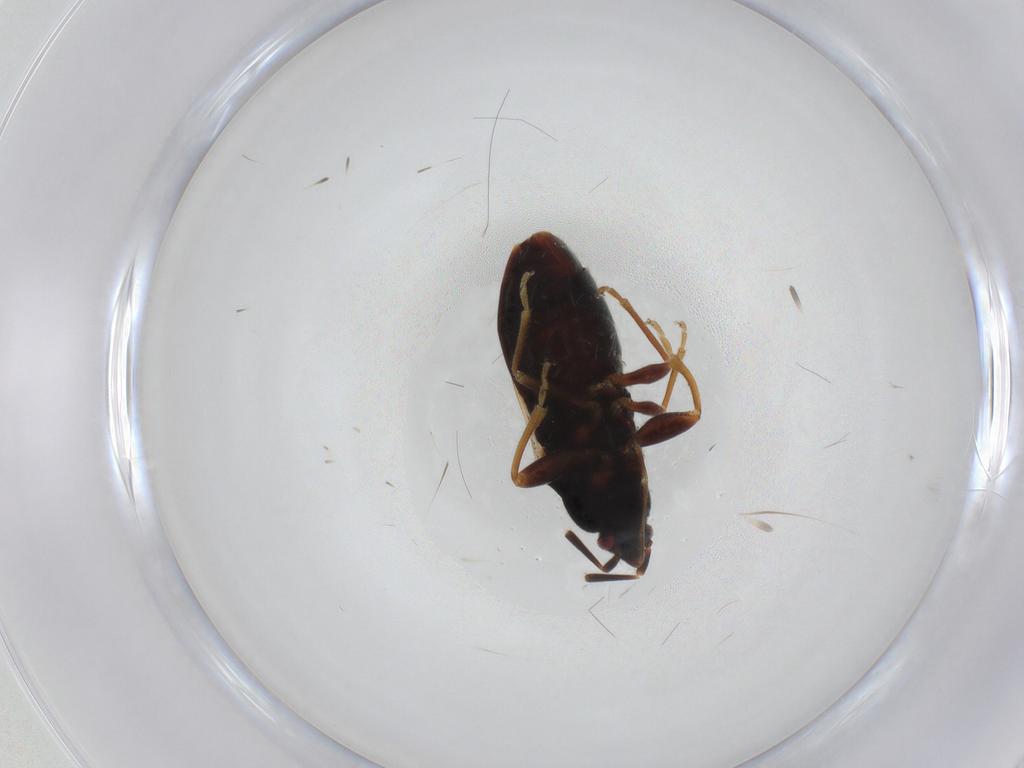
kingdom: Animalia
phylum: Arthropoda
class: Insecta
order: Hemiptera
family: Rhyparochromidae
